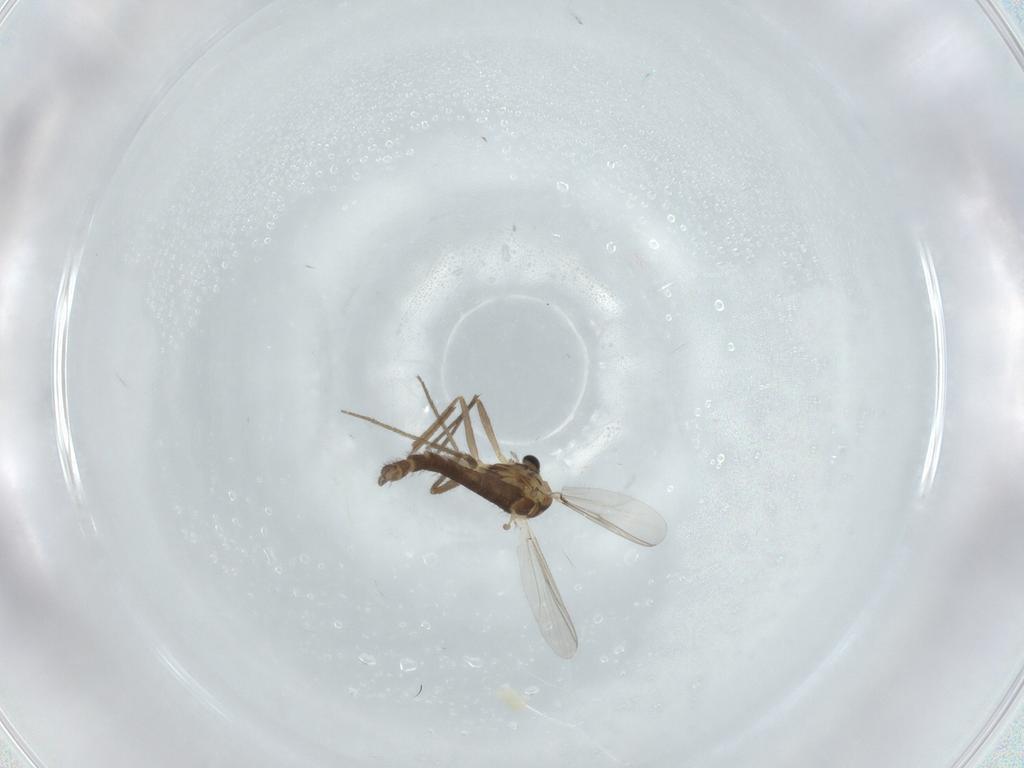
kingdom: Animalia
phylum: Arthropoda
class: Insecta
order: Diptera
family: Chironomidae
